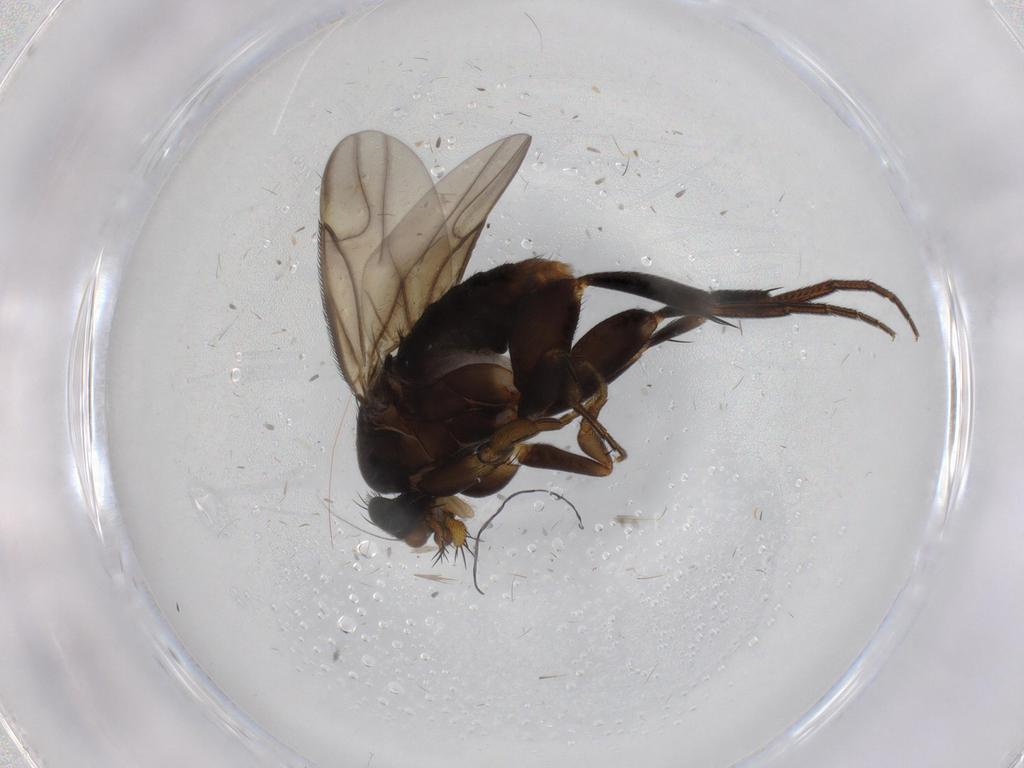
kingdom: Animalia
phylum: Arthropoda
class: Insecta
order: Diptera
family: Phoridae
